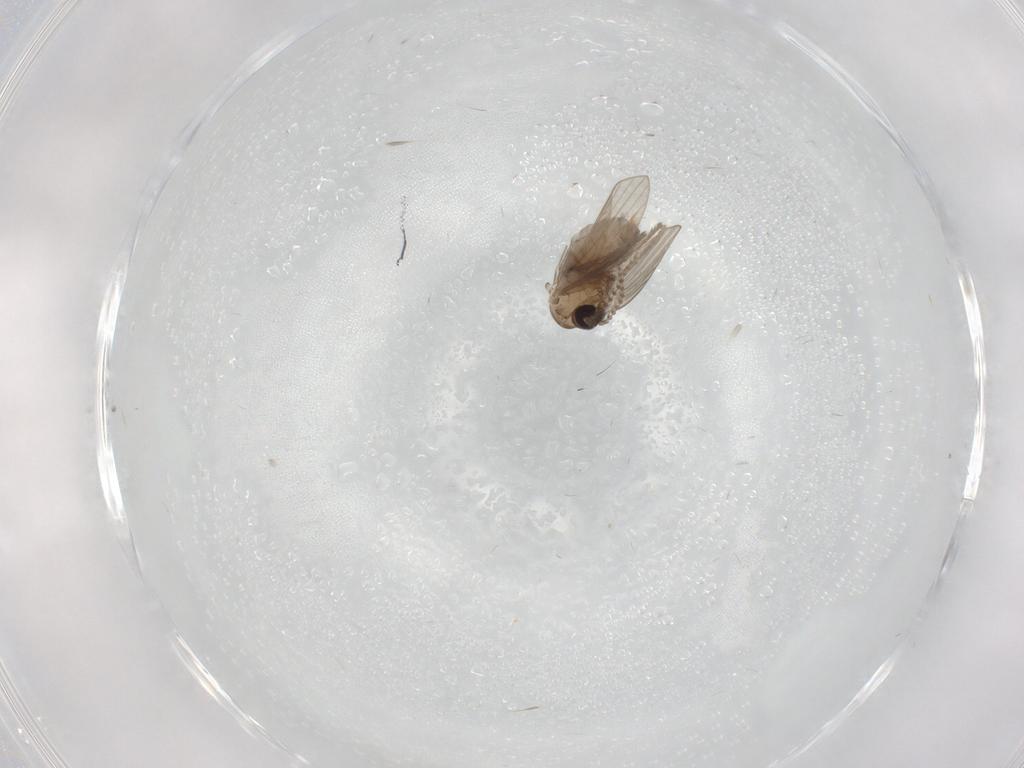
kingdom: Animalia
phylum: Arthropoda
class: Insecta
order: Diptera
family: Psychodidae
